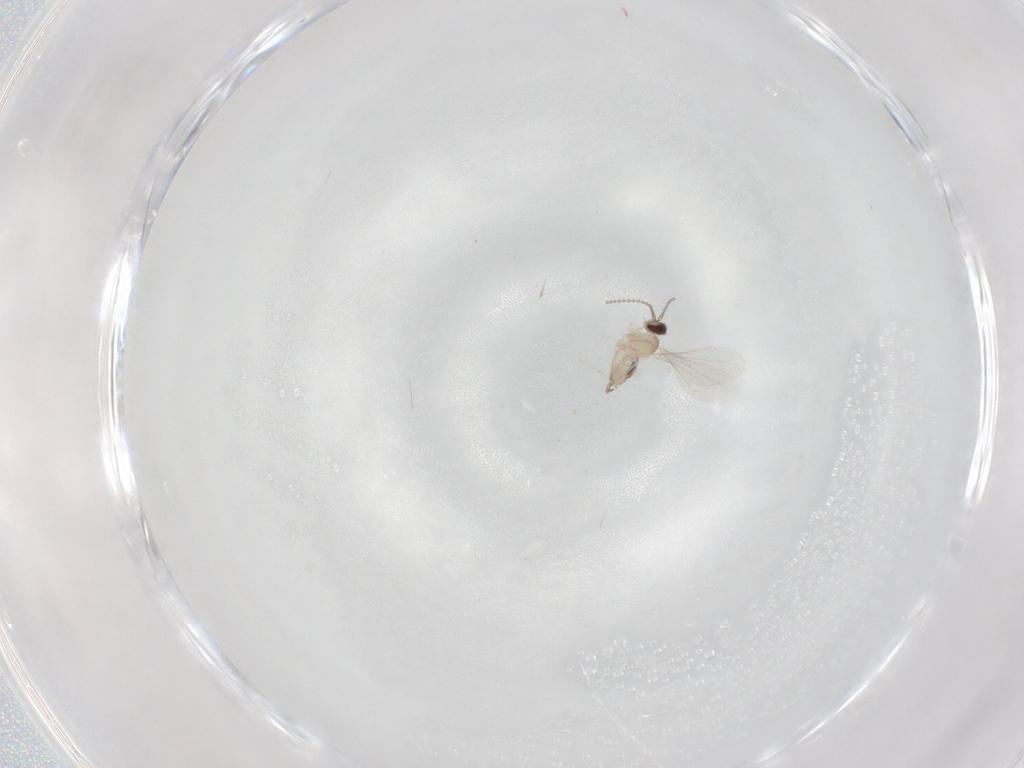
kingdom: Animalia
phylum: Arthropoda
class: Insecta
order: Diptera
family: Cecidomyiidae
